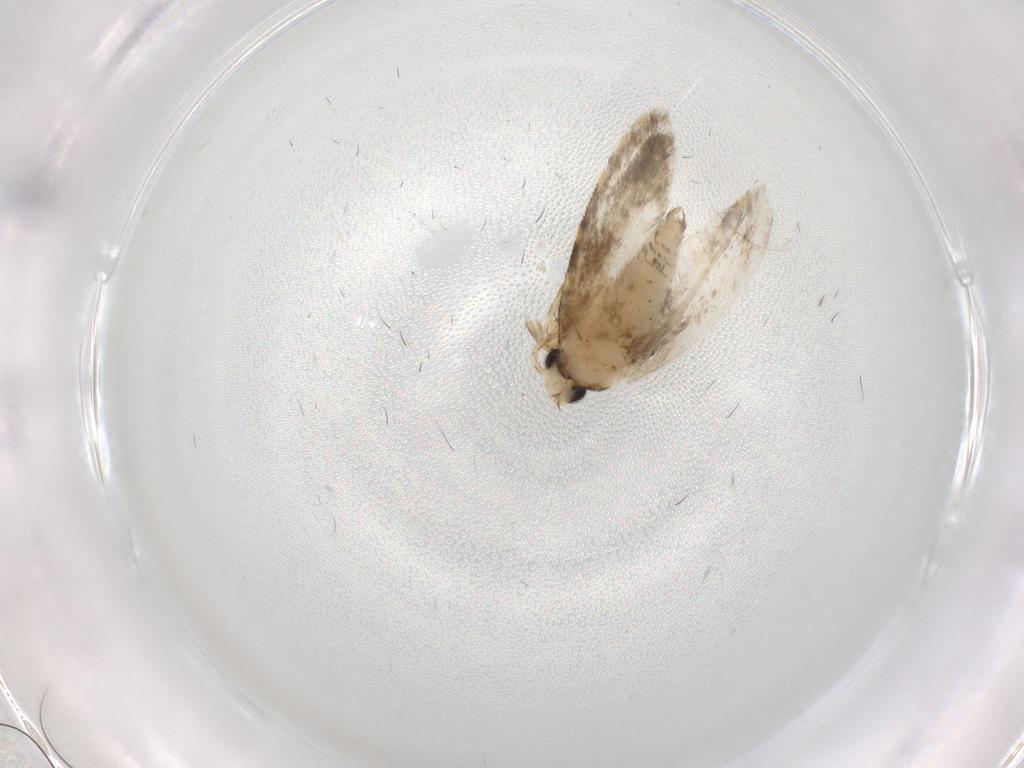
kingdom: Animalia
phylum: Arthropoda
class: Insecta
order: Lepidoptera
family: Psychidae
